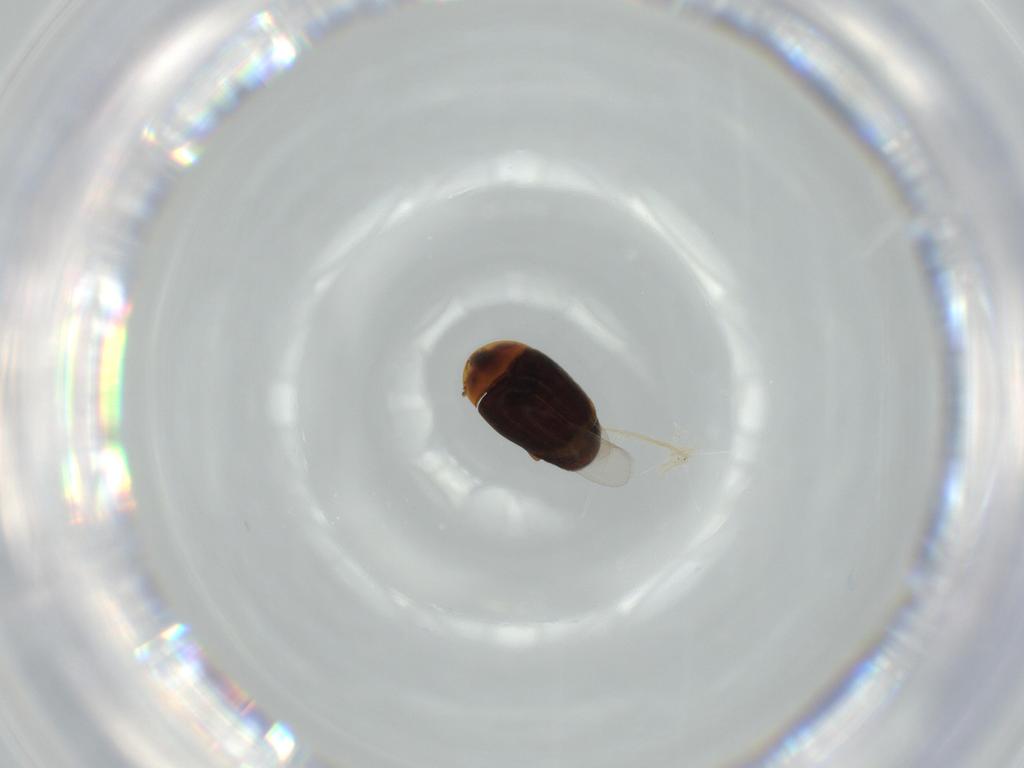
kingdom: Animalia
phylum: Arthropoda
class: Insecta
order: Coleoptera
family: Corylophidae
